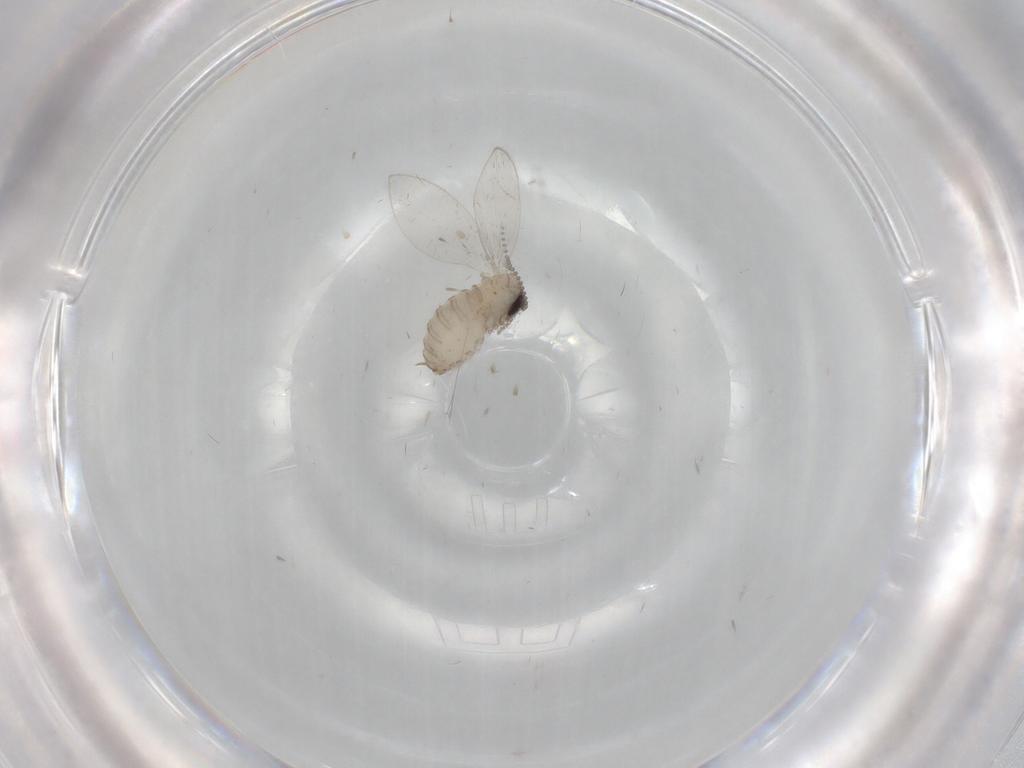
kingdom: Animalia
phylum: Arthropoda
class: Insecta
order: Diptera
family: Psychodidae
